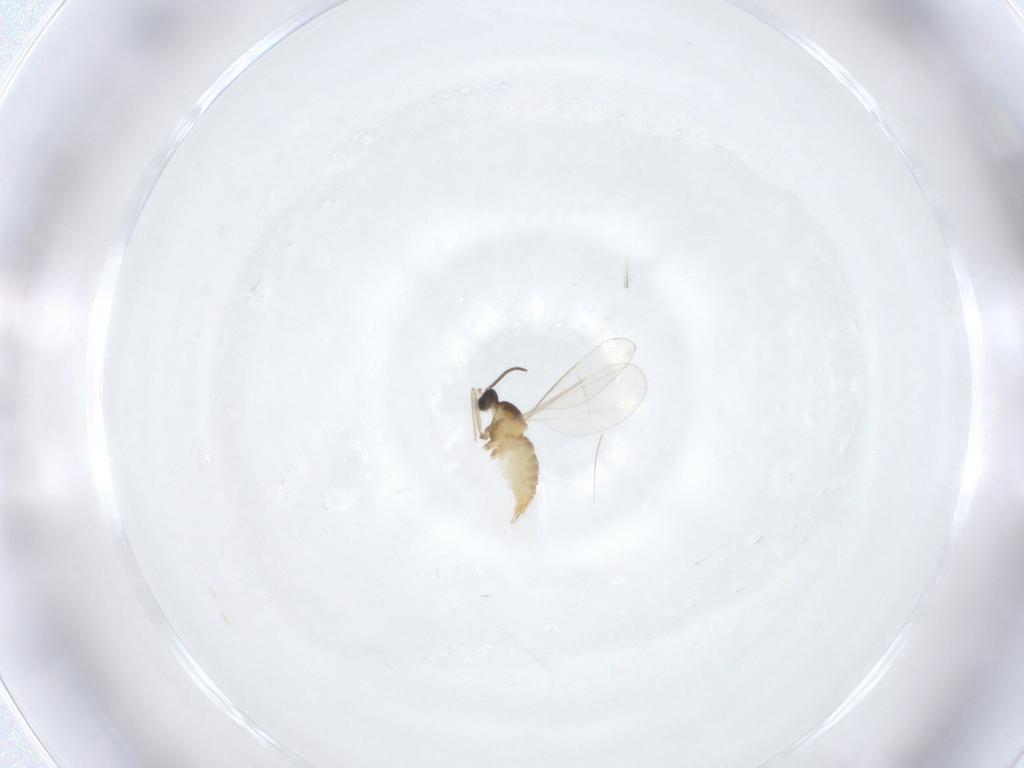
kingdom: Animalia
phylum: Arthropoda
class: Insecta
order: Diptera
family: Cecidomyiidae
